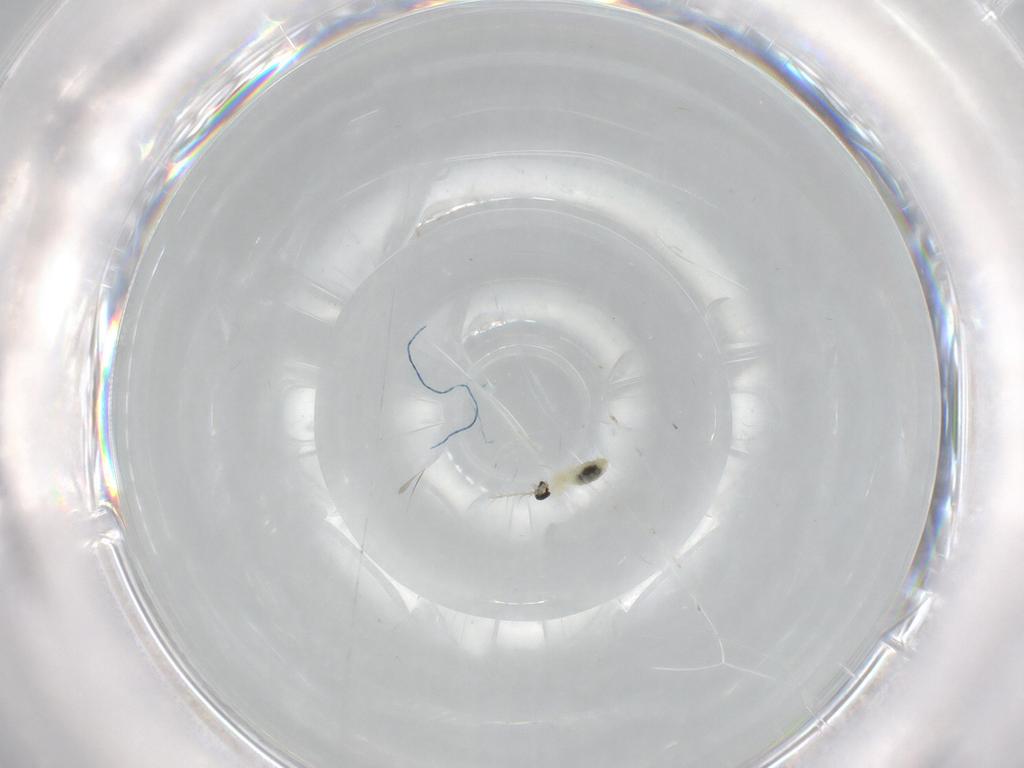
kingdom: Animalia
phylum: Arthropoda
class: Insecta
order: Diptera
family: Cecidomyiidae
